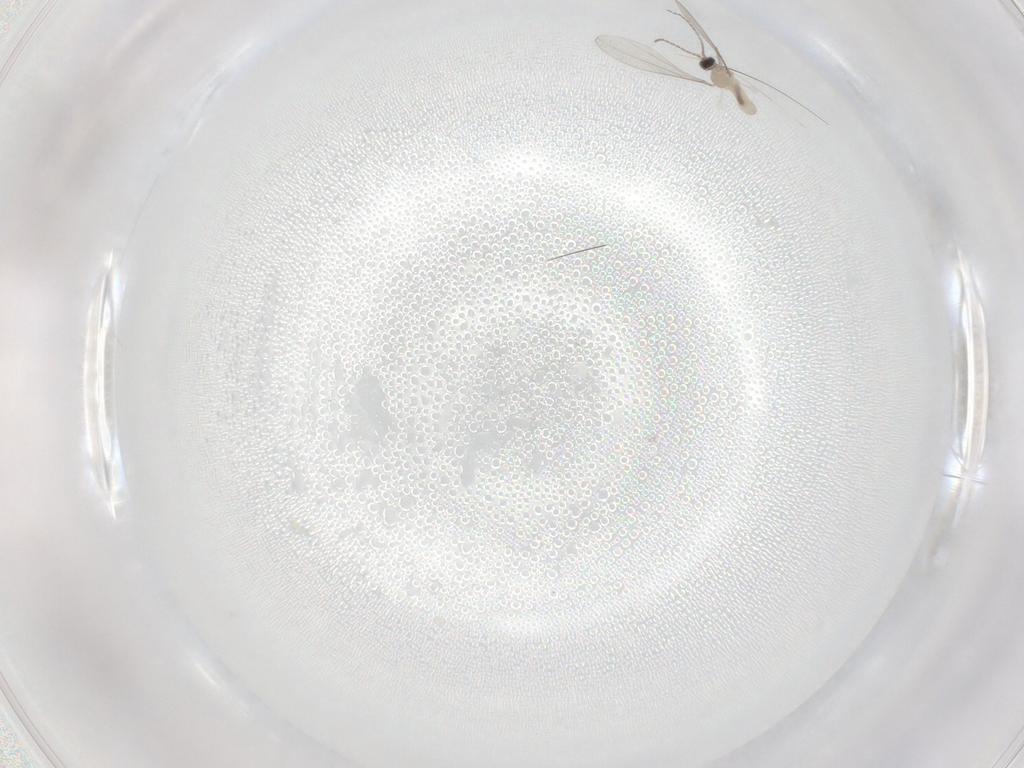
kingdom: Animalia
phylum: Arthropoda
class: Insecta
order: Diptera
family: Cecidomyiidae
